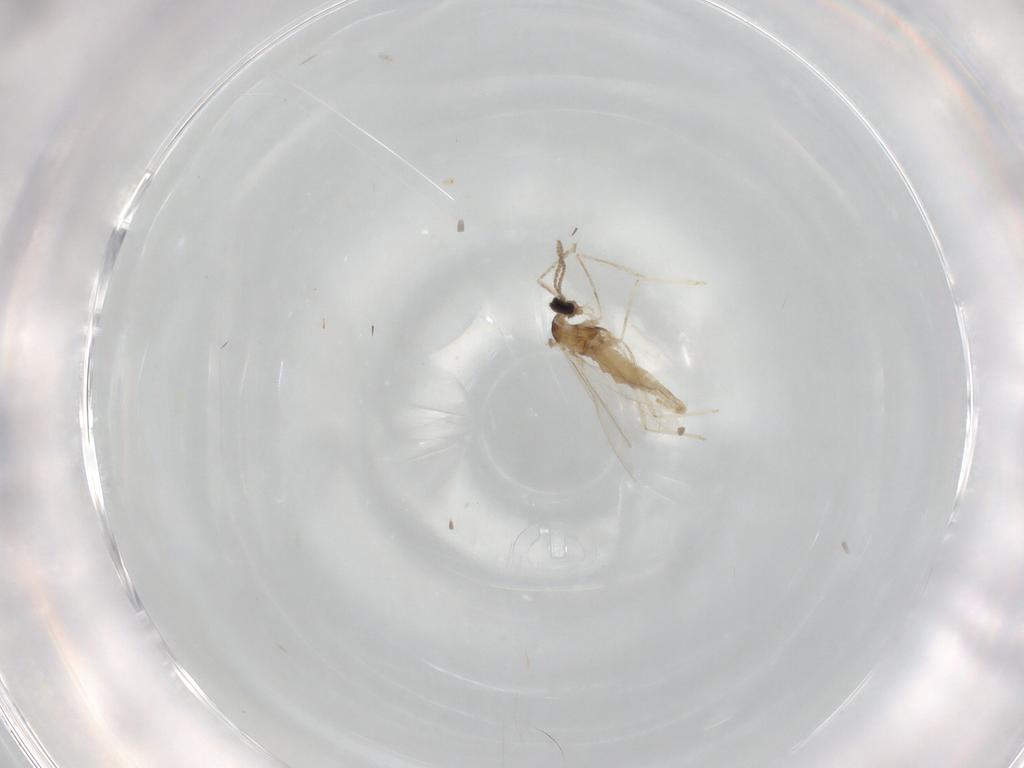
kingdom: Animalia
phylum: Arthropoda
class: Insecta
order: Diptera
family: Cecidomyiidae
